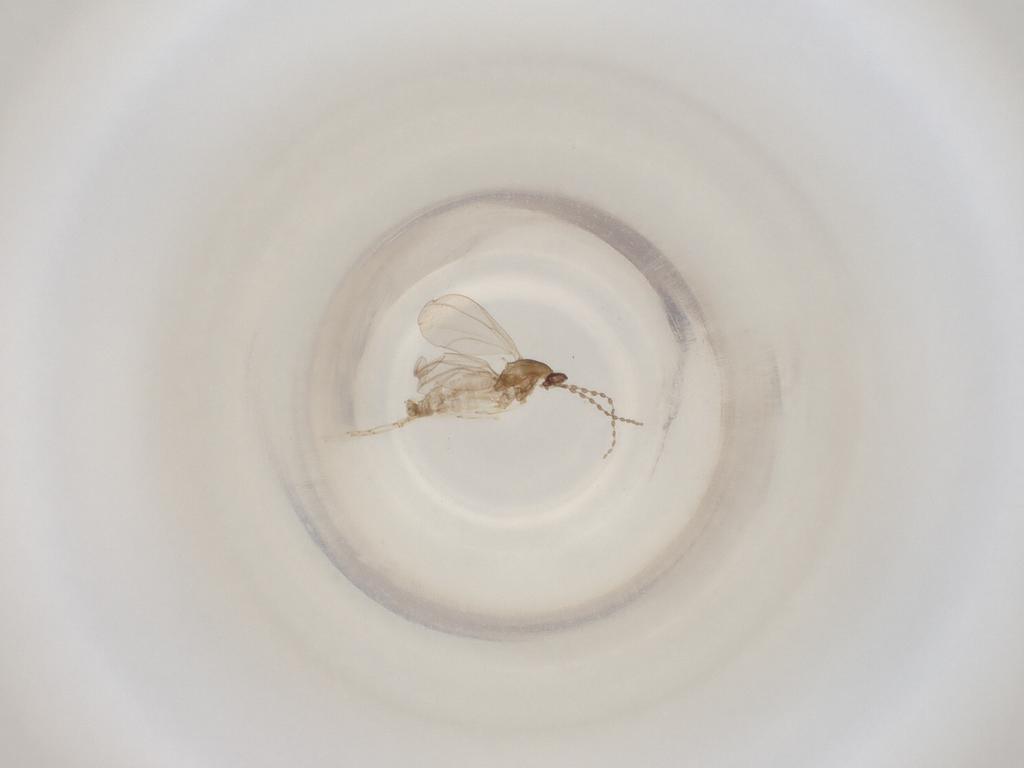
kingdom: Animalia
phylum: Arthropoda
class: Insecta
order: Diptera
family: Cecidomyiidae
